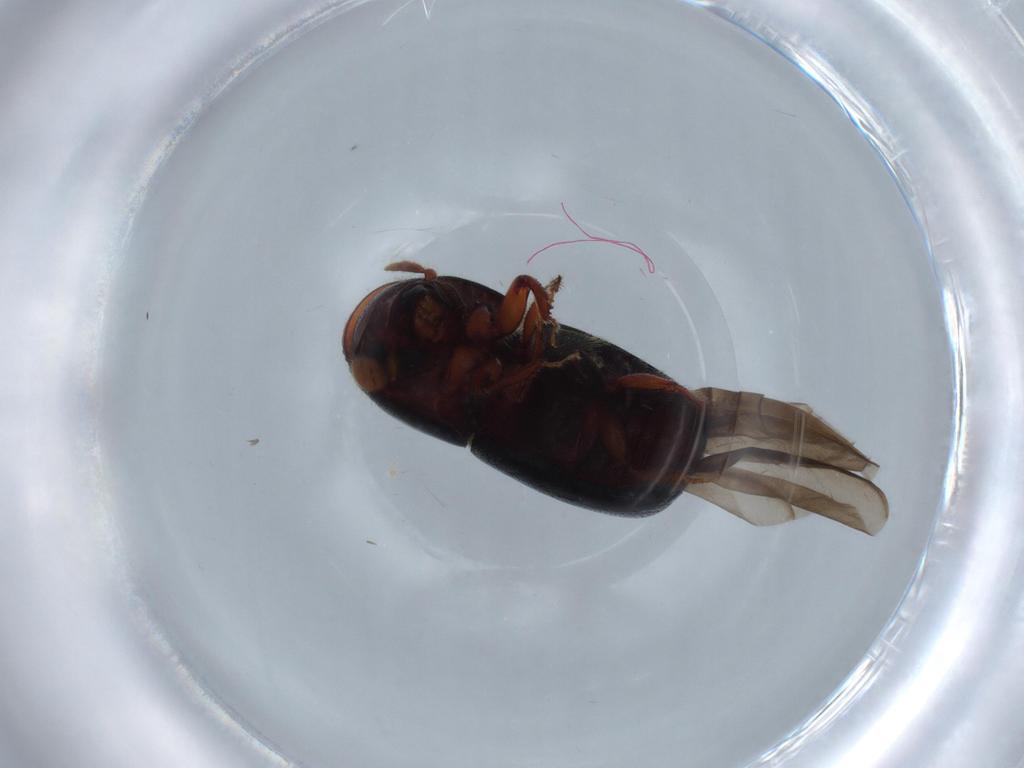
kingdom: Animalia
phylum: Arthropoda
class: Insecta
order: Coleoptera
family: Curculionidae
